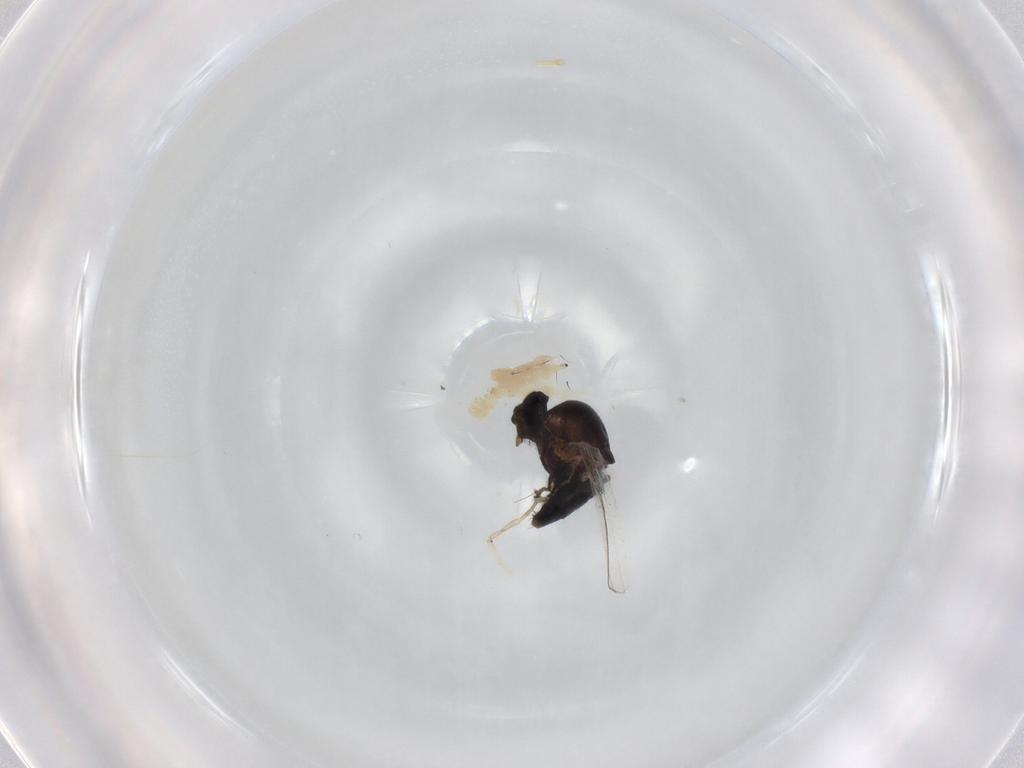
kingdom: Animalia
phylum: Arthropoda
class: Insecta
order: Diptera
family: Glossinidae
